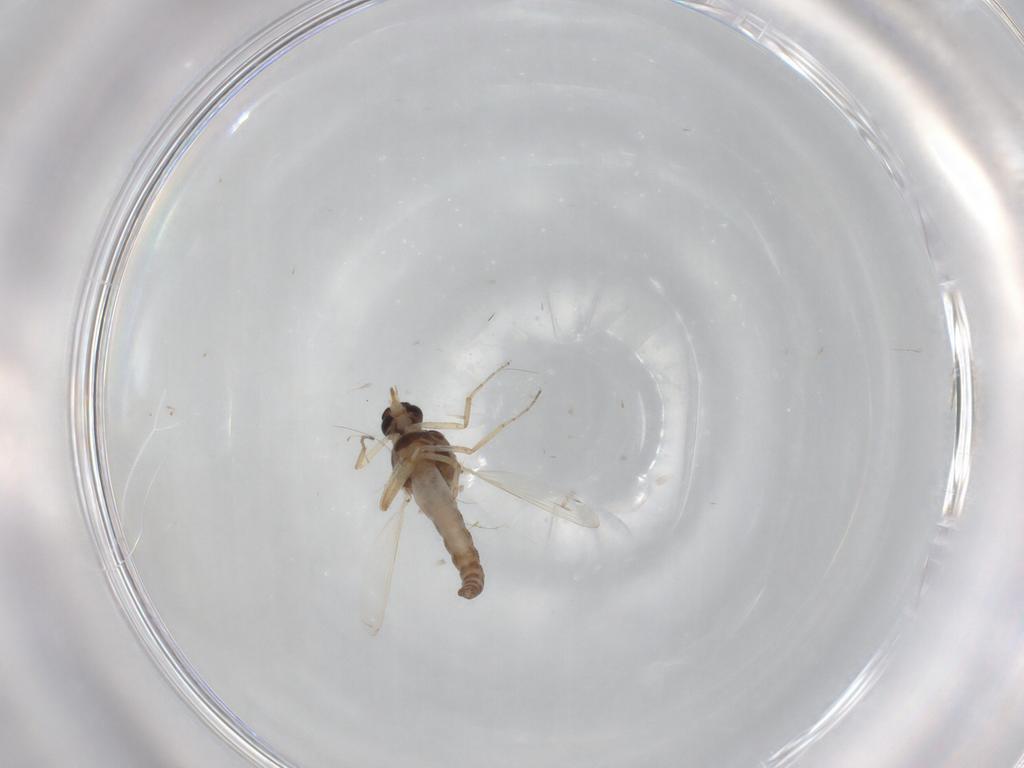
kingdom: Animalia
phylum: Arthropoda
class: Insecta
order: Diptera
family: Ceratopogonidae
